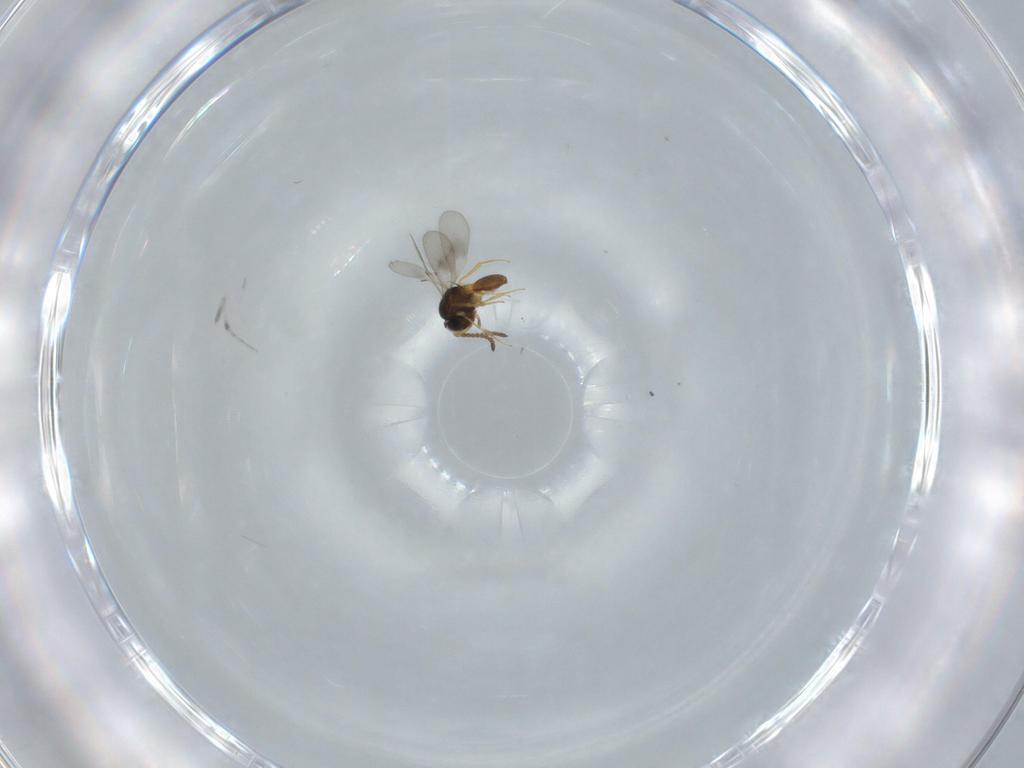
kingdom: Animalia
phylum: Arthropoda
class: Insecta
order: Hymenoptera
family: Scelionidae
